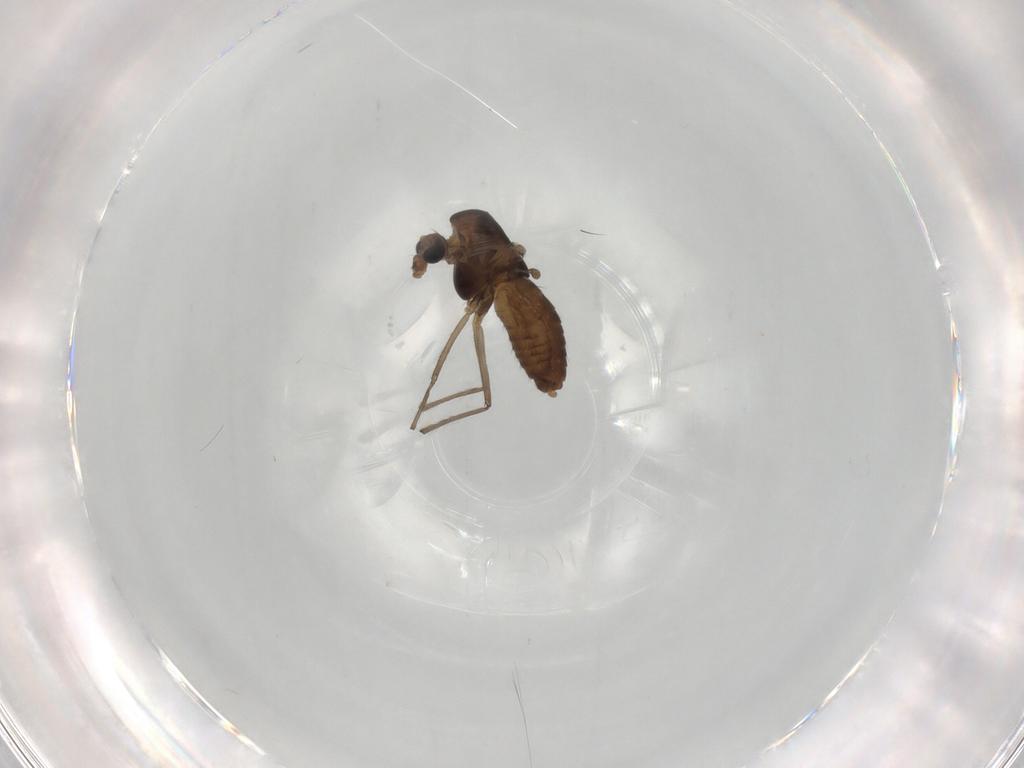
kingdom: Animalia
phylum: Arthropoda
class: Insecta
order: Diptera
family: Chironomidae
